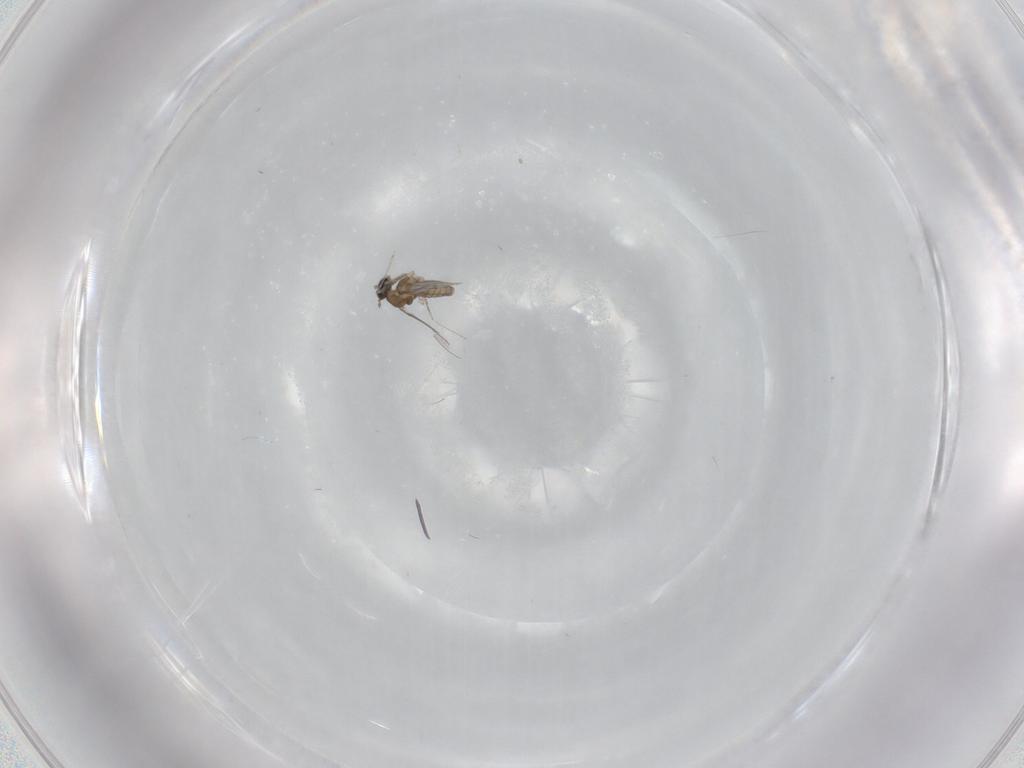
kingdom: Animalia
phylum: Arthropoda
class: Insecta
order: Diptera
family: Cecidomyiidae
